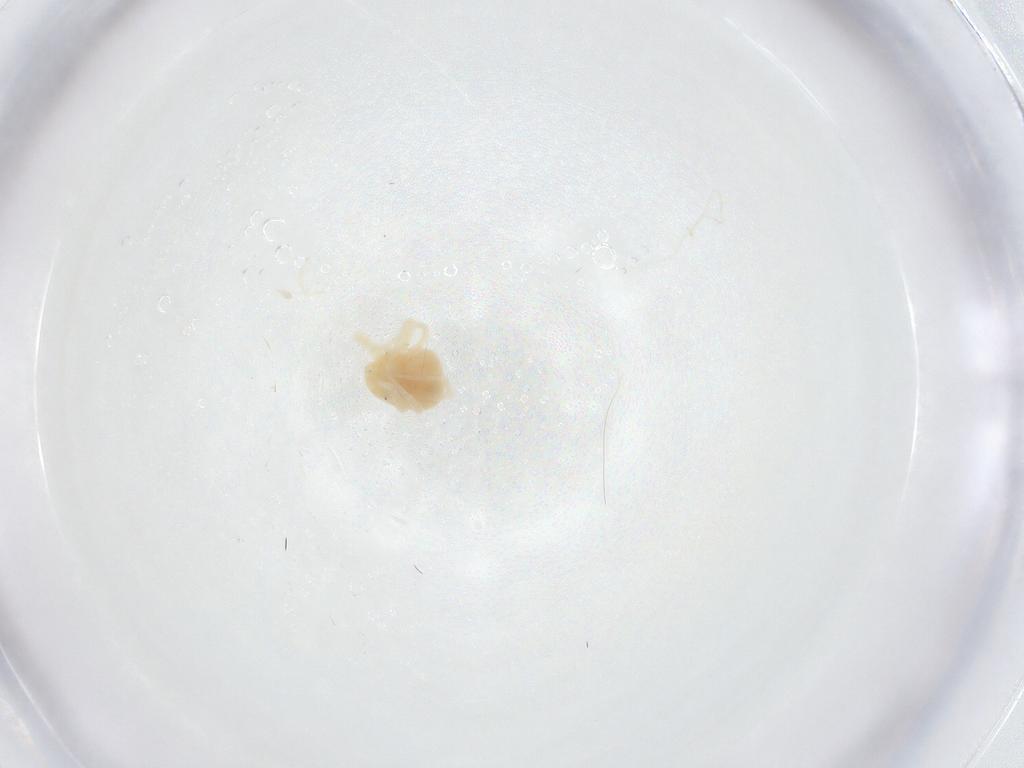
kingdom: Animalia
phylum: Arthropoda
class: Arachnida
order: Trombidiformes
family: Anystidae
